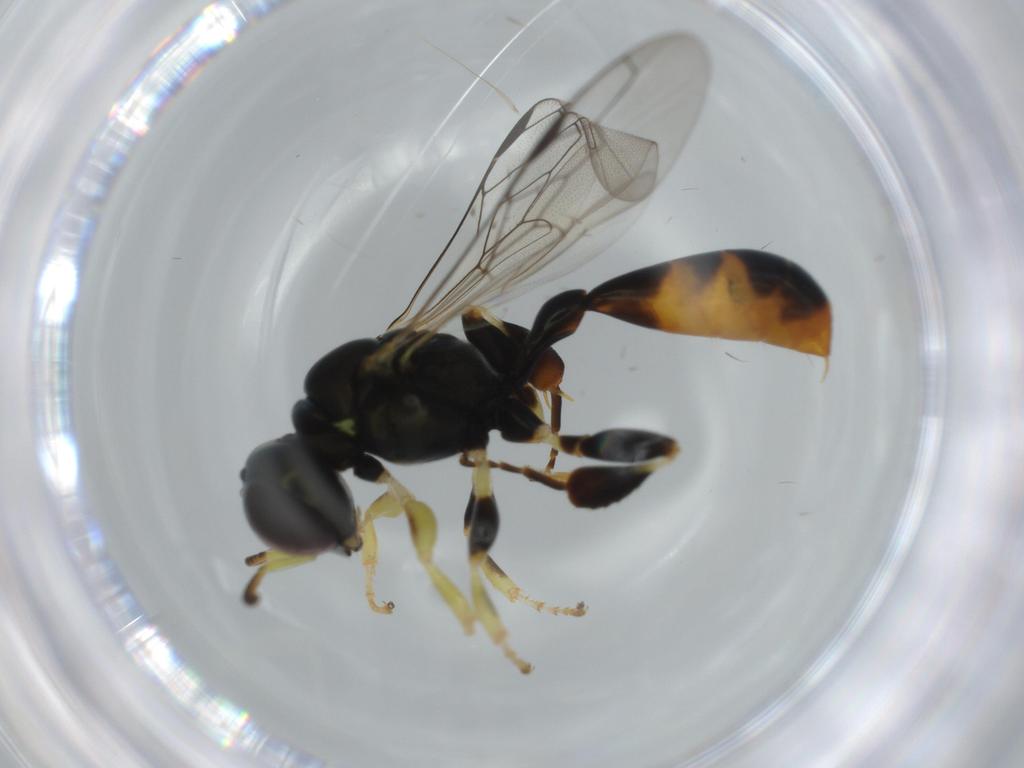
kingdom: Animalia
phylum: Arthropoda
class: Insecta
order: Hymenoptera
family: Crabronidae
